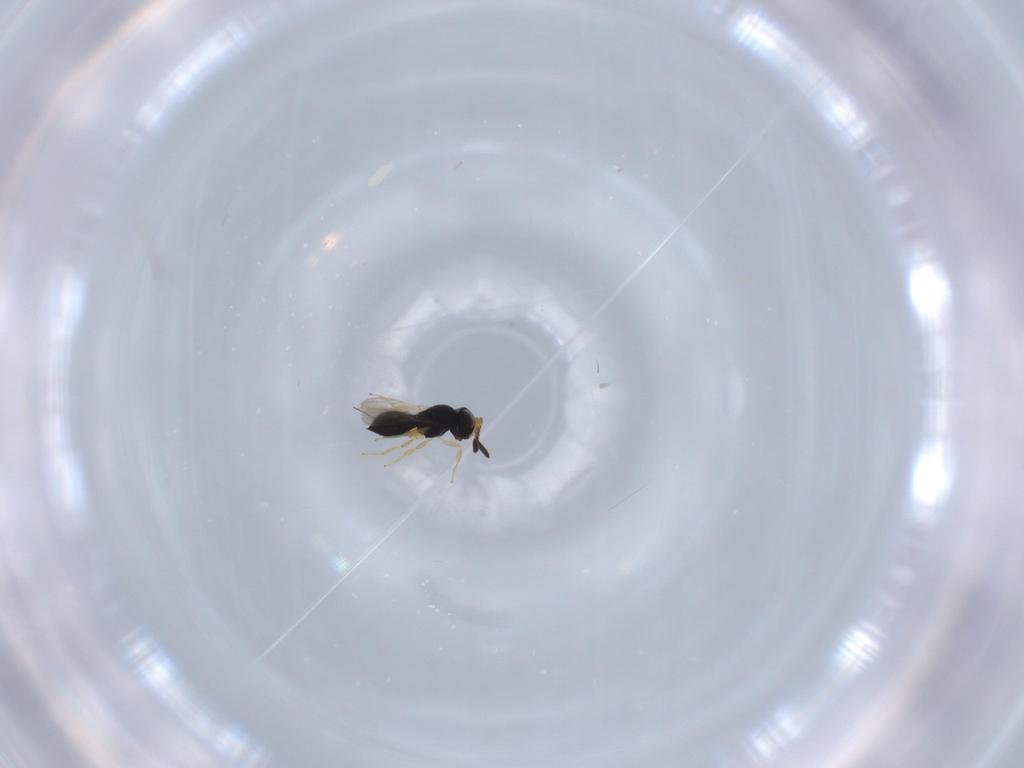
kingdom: Animalia
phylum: Arthropoda
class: Insecta
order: Hymenoptera
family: Scelionidae
